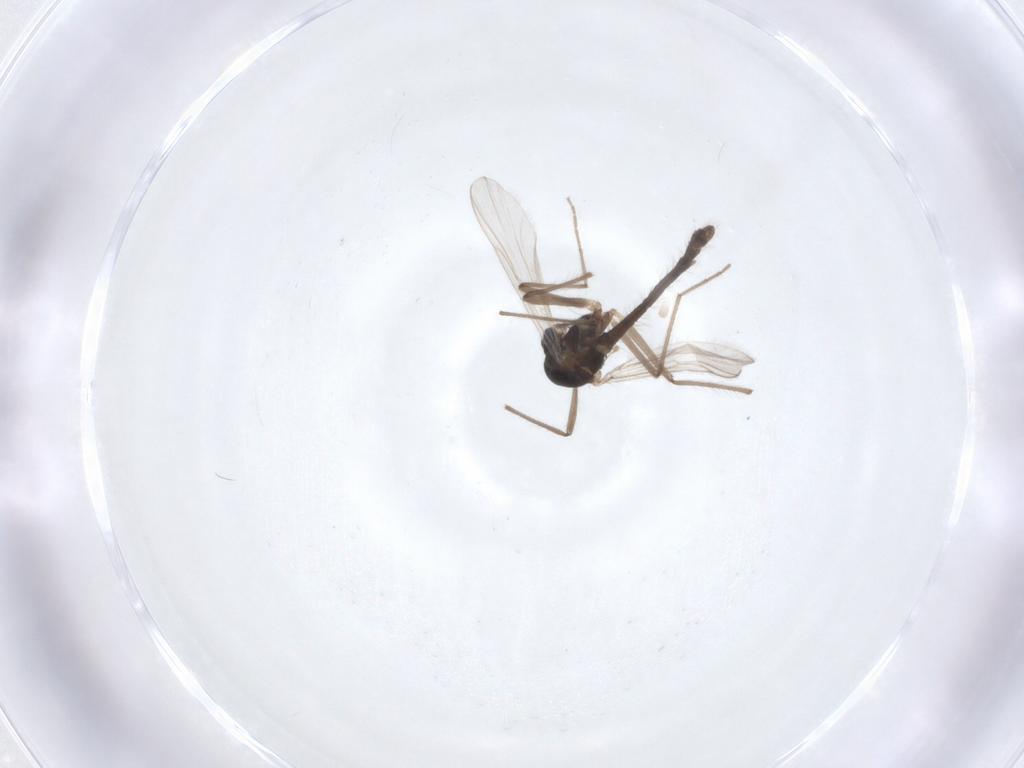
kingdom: Animalia
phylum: Arthropoda
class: Insecta
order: Diptera
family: Chironomidae
